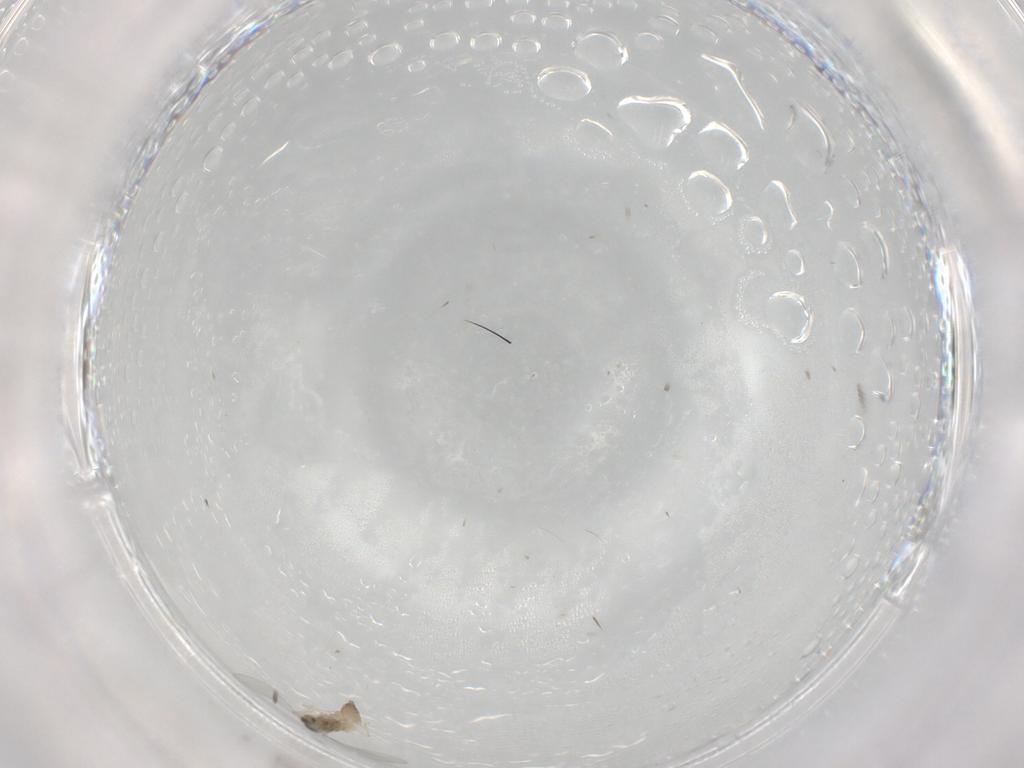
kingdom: Animalia
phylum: Arthropoda
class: Insecta
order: Diptera
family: Cecidomyiidae
